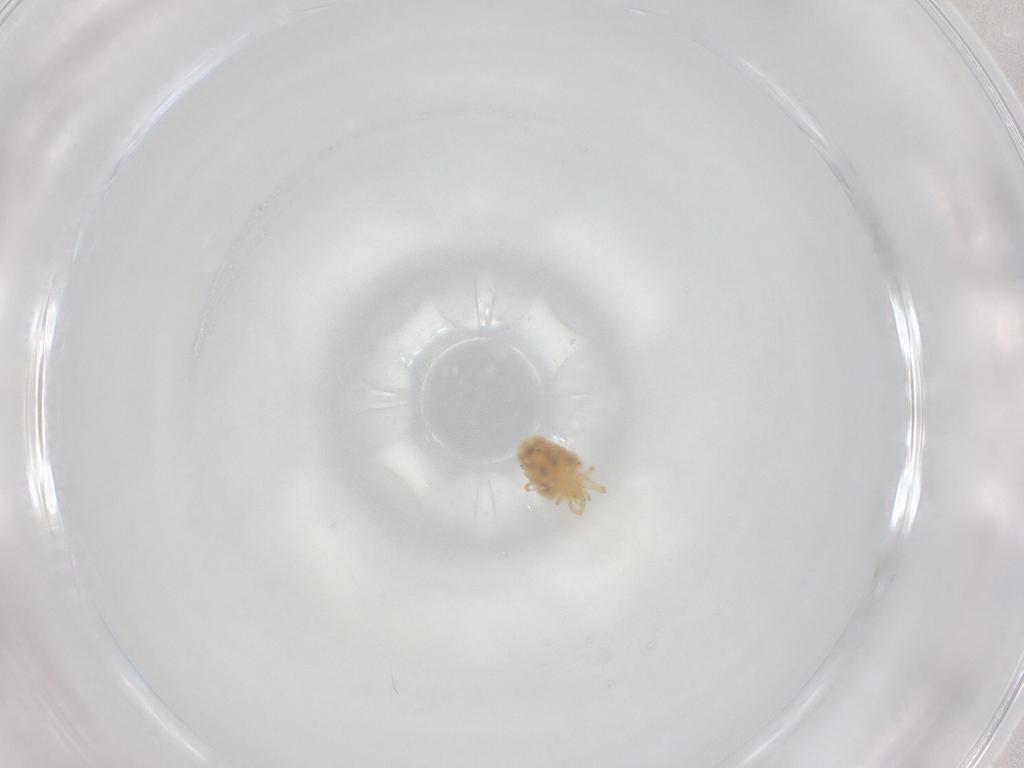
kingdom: Animalia
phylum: Arthropoda
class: Arachnida
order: Trombidiformes
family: Erythraeidae
